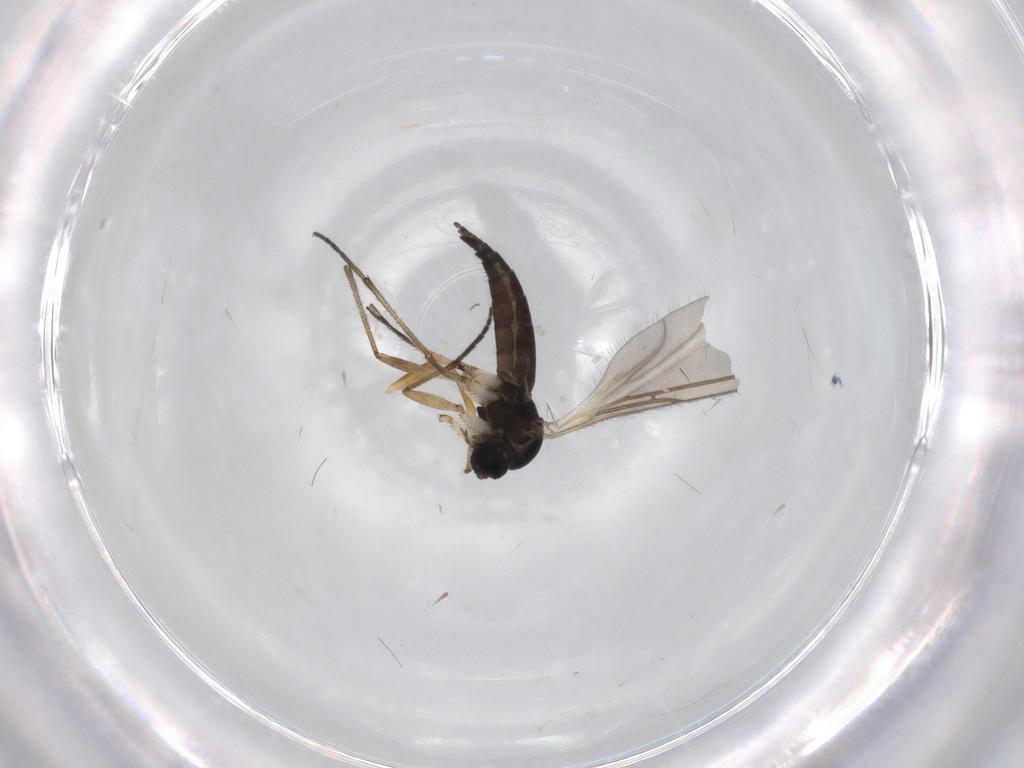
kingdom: Animalia
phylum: Arthropoda
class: Insecta
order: Diptera
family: Sciaridae
